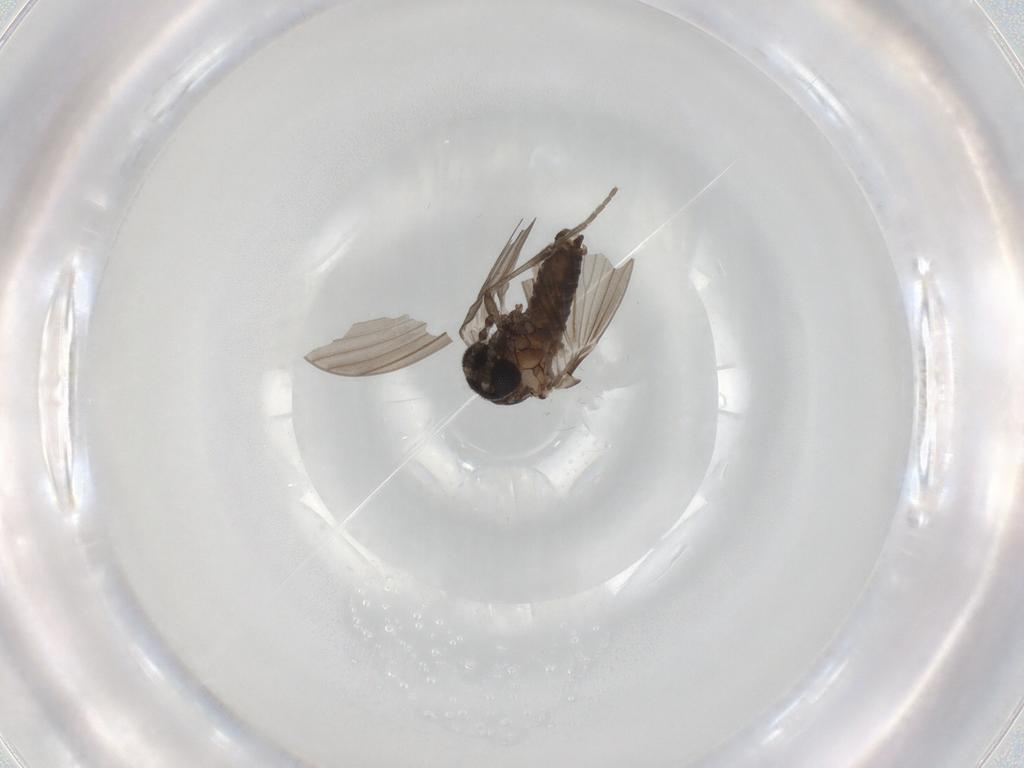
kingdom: Animalia
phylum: Arthropoda
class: Insecta
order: Diptera
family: Psychodidae
